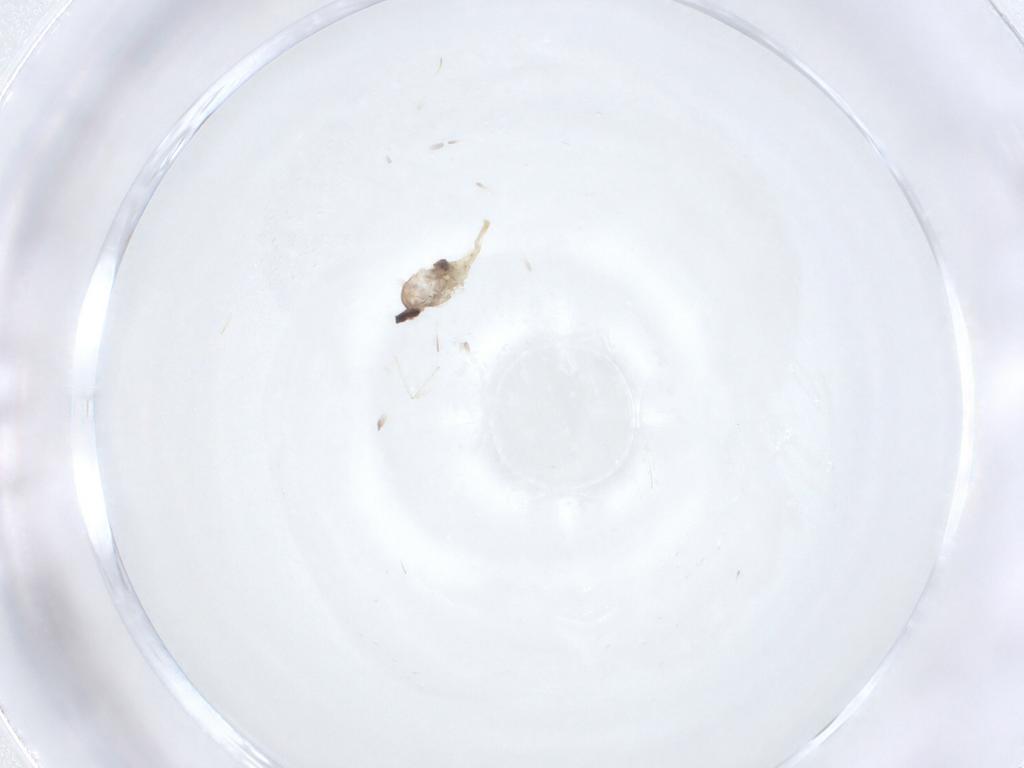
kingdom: Animalia
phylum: Arthropoda
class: Insecta
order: Diptera
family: Cecidomyiidae
